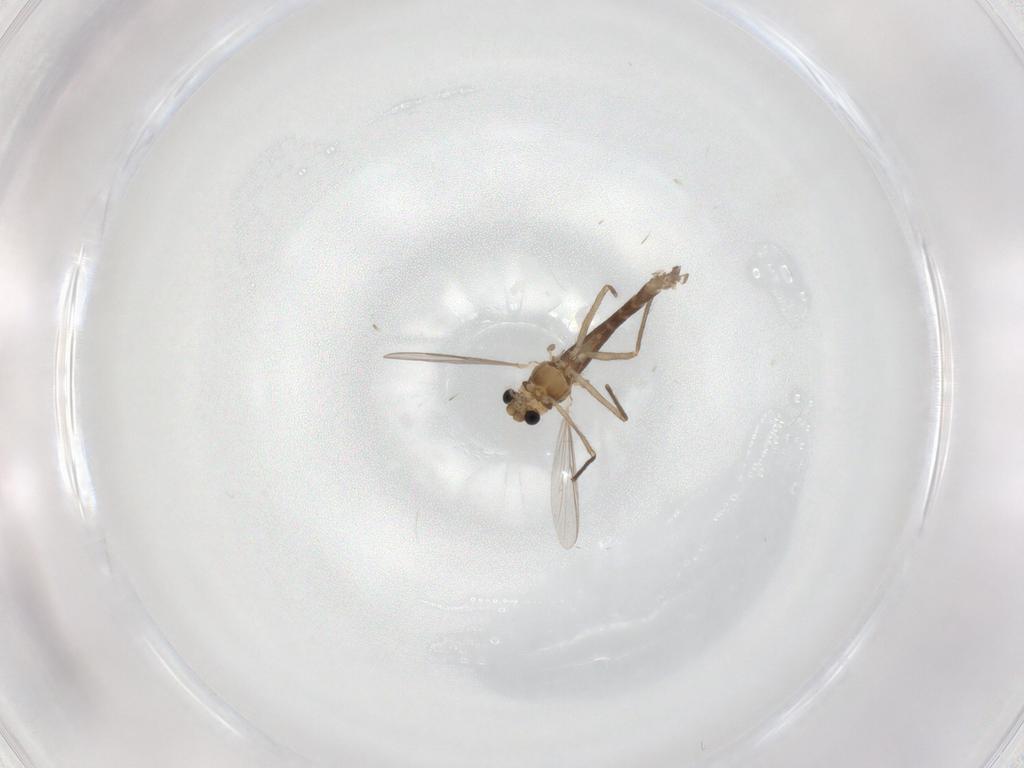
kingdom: Animalia
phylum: Arthropoda
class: Insecta
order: Diptera
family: Chironomidae
